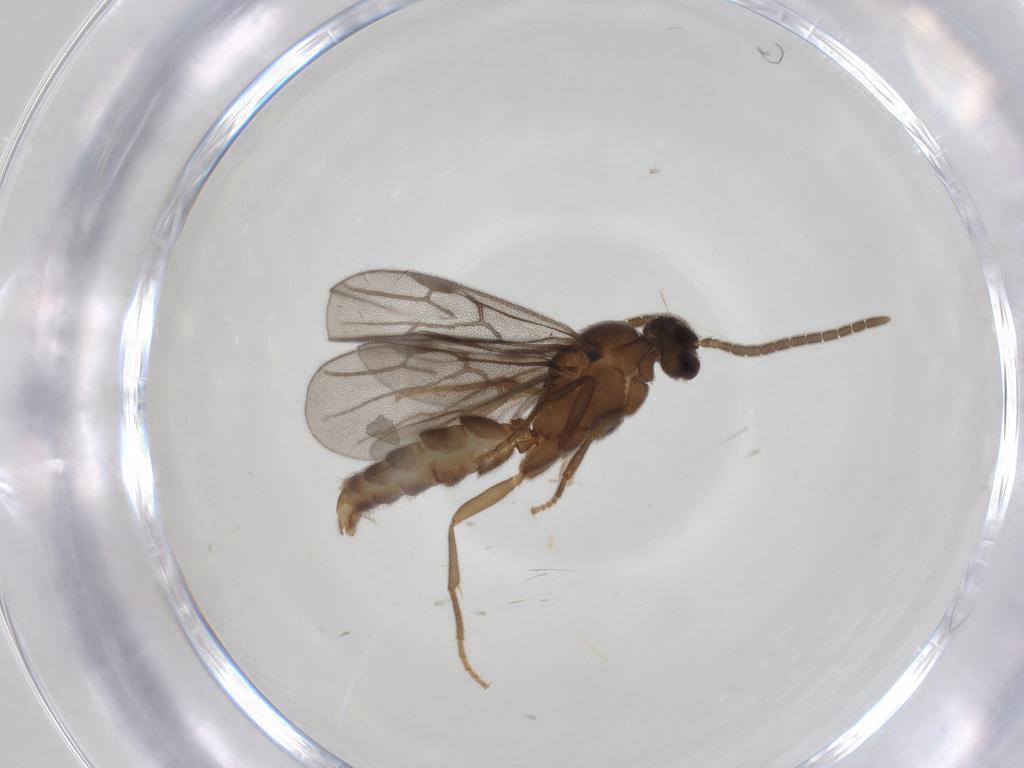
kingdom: Animalia
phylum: Arthropoda
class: Insecta
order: Hymenoptera
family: Formicidae
